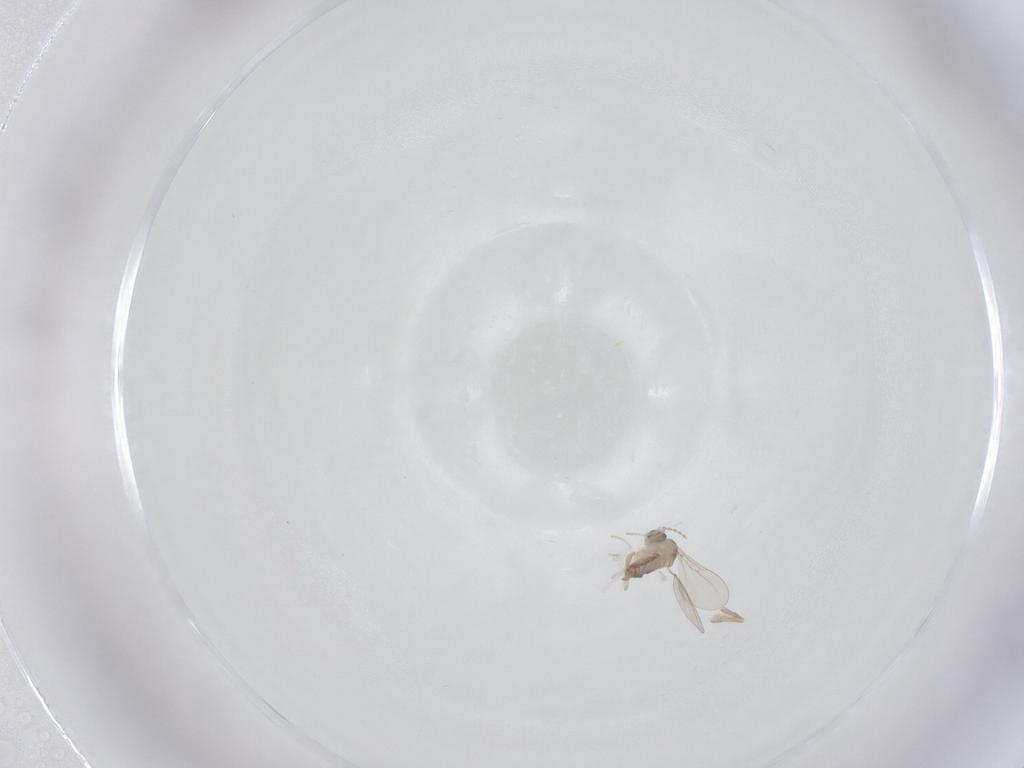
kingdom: Animalia
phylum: Arthropoda
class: Insecta
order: Diptera
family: Cecidomyiidae
